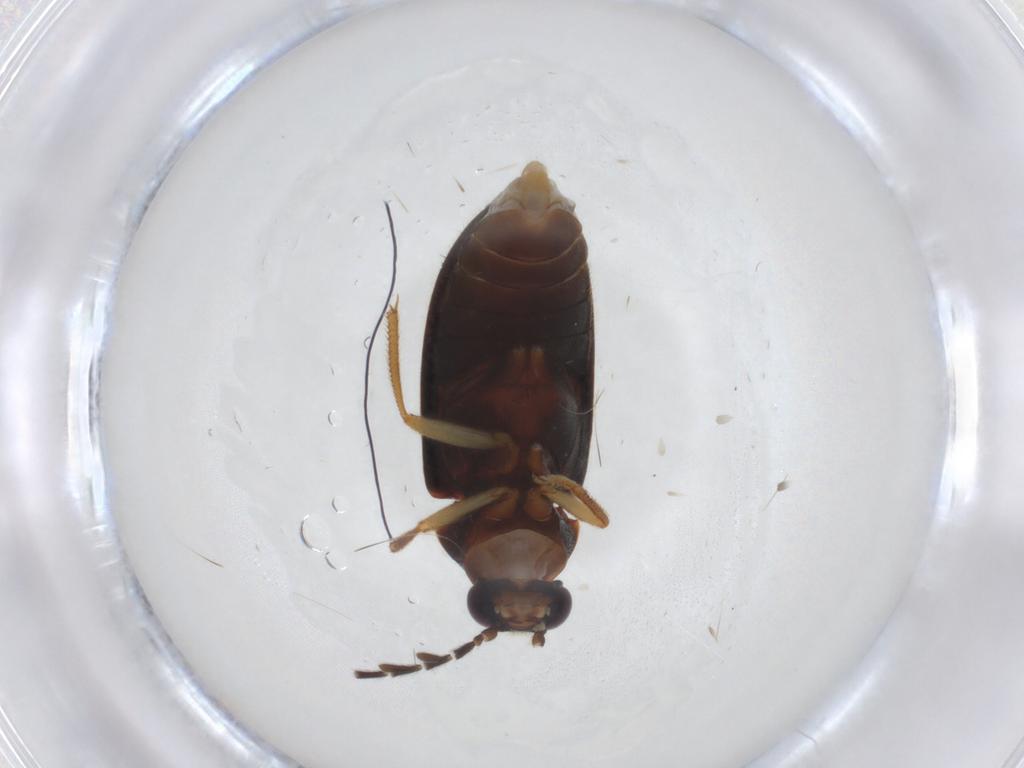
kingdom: Animalia
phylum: Arthropoda
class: Insecta
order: Coleoptera
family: Ptilodactylidae
